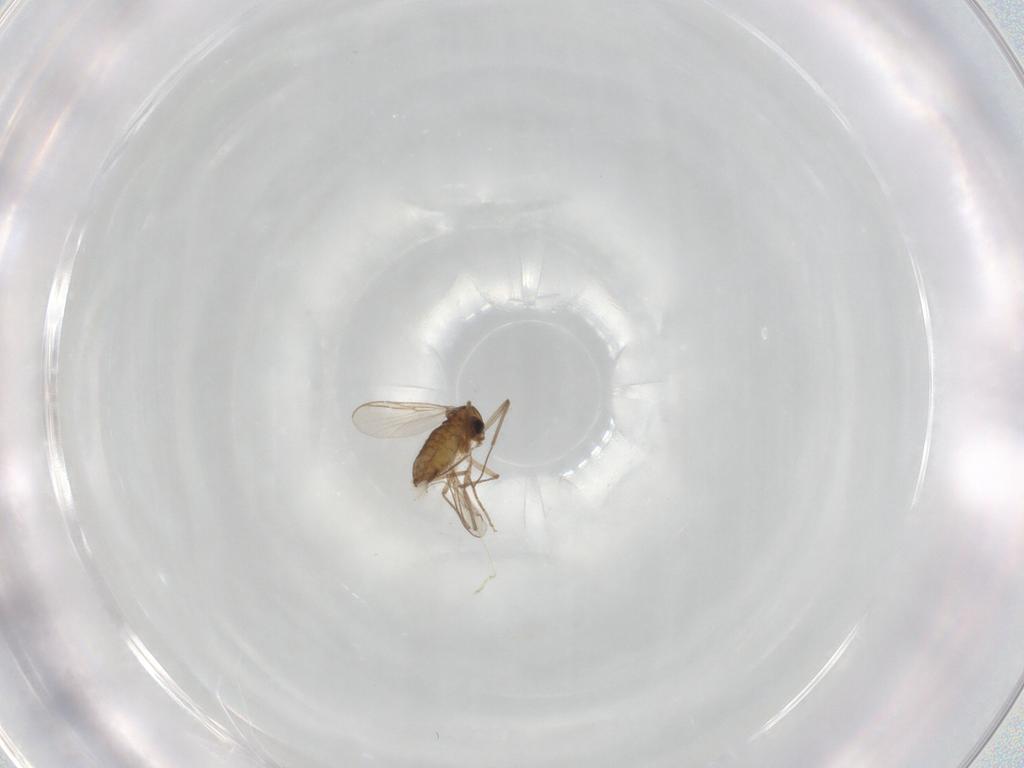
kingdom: Animalia
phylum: Arthropoda
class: Insecta
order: Diptera
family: Chironomidae
